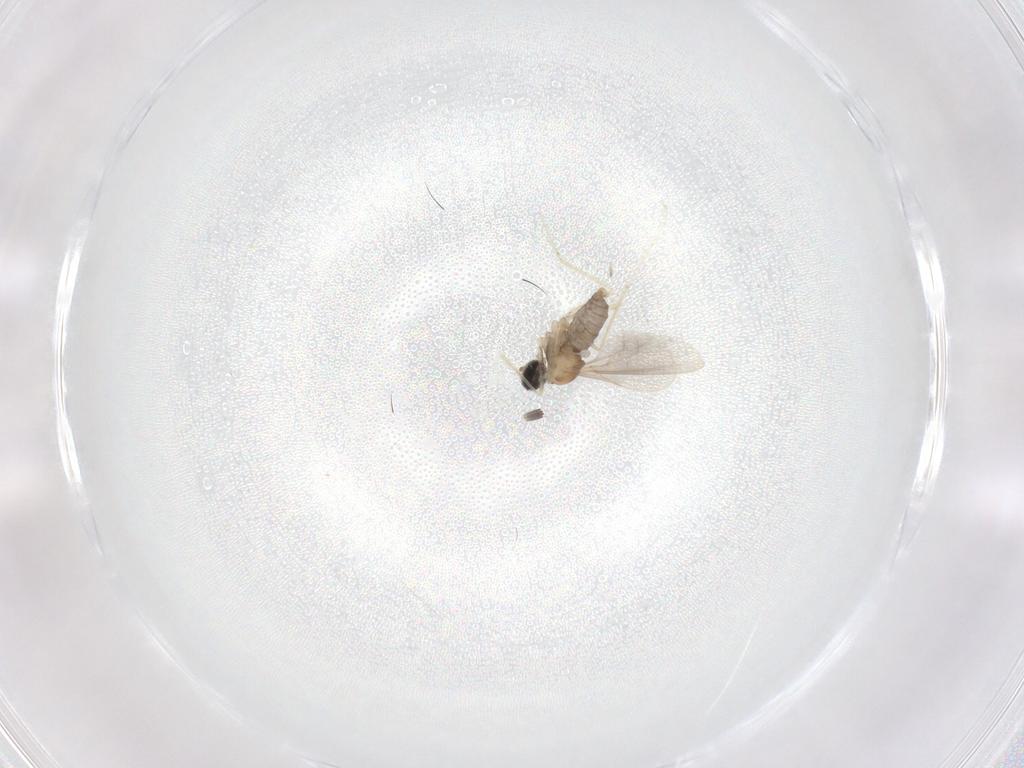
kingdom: Animalia
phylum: Arthropoda
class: Insecta
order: Diptera
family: Cecidomyiidae
